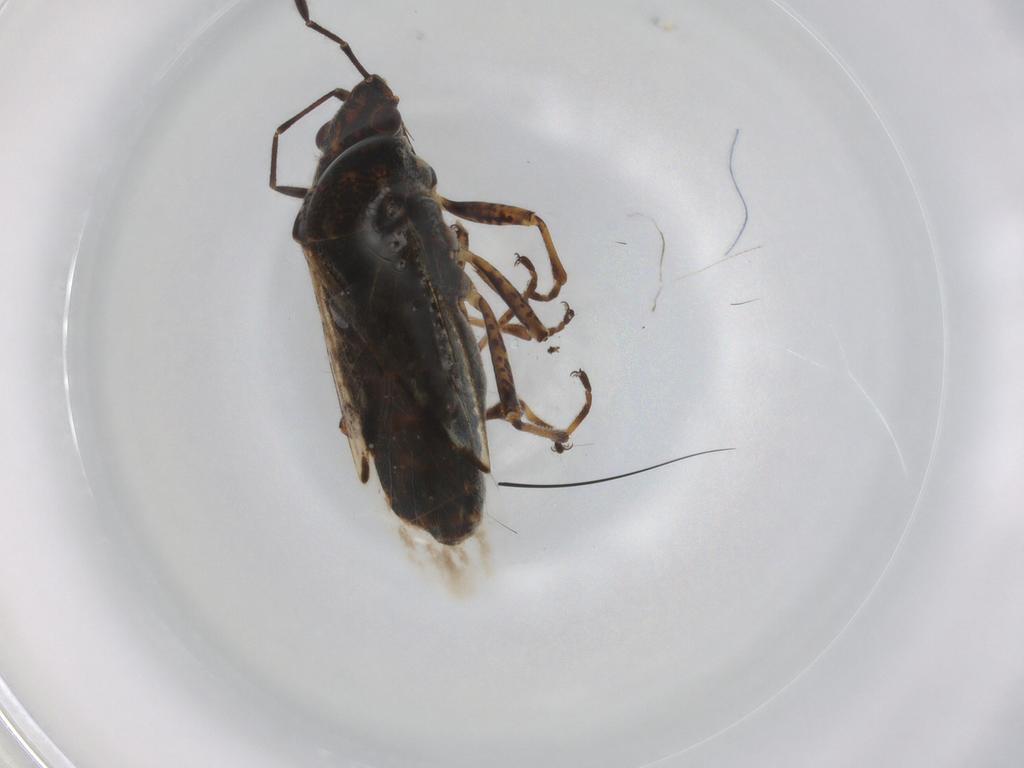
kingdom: Animalia
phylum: Arthropoda
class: Insecta
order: Hemiptera
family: Lygaeidae
